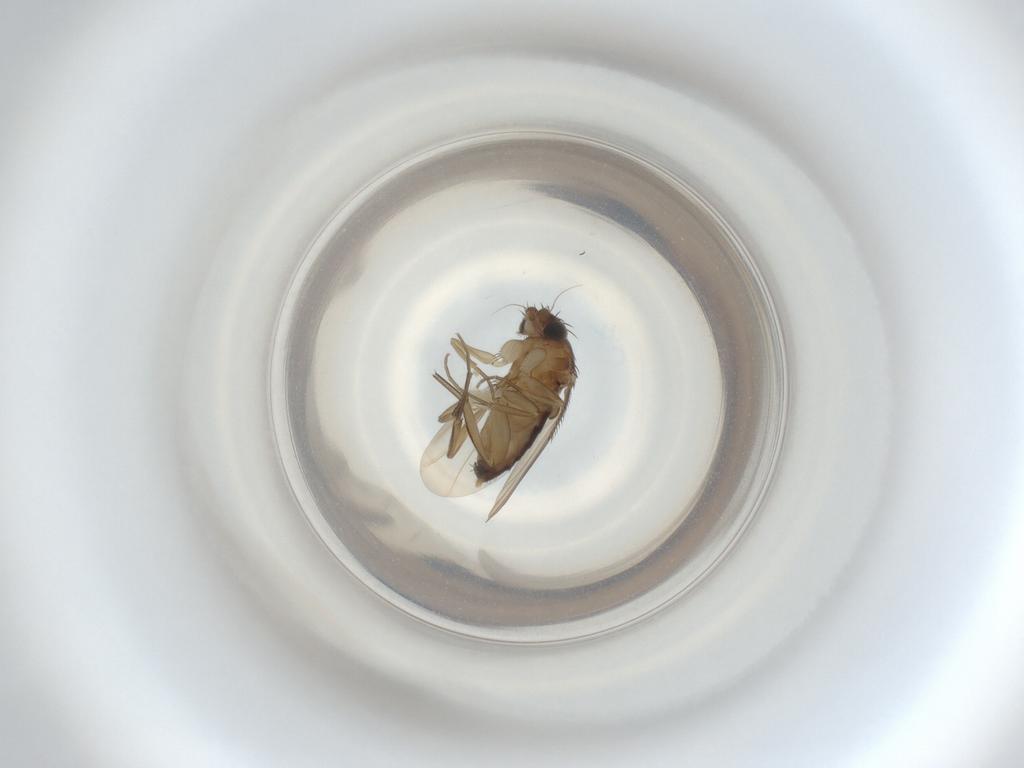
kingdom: Animalia
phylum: Arthropoda
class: Insecta
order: Diptera
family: Phoridae
